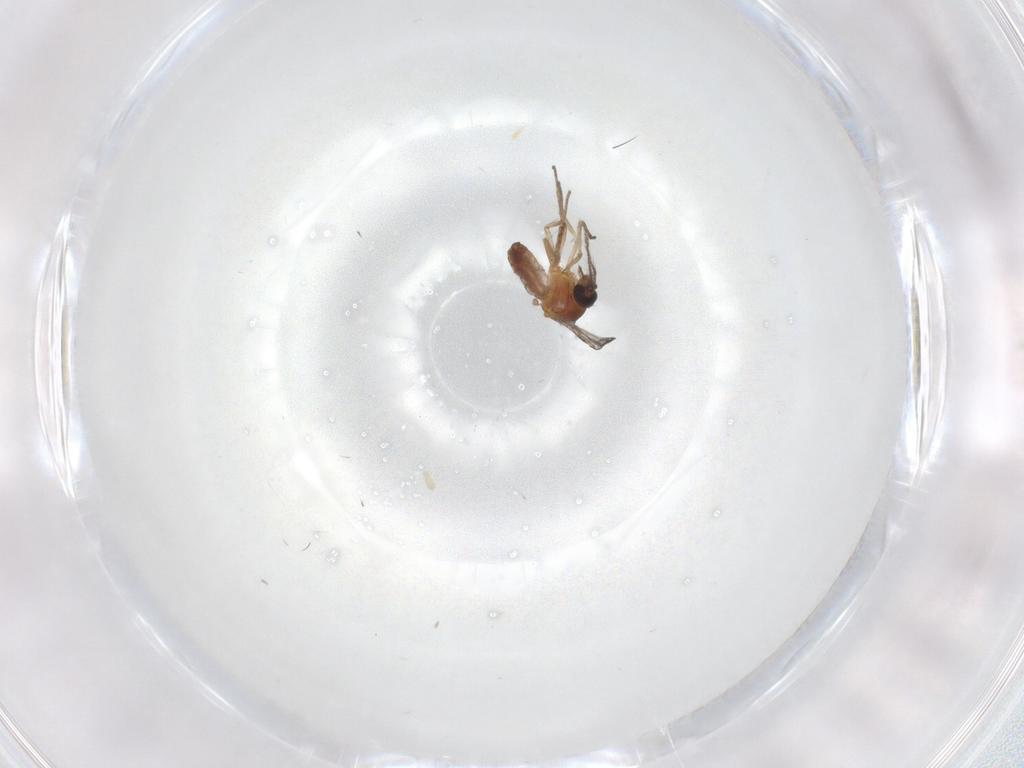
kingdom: Animalia
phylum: Arthropoda
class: Insecta
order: Diptera
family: Ceratopogonidae
